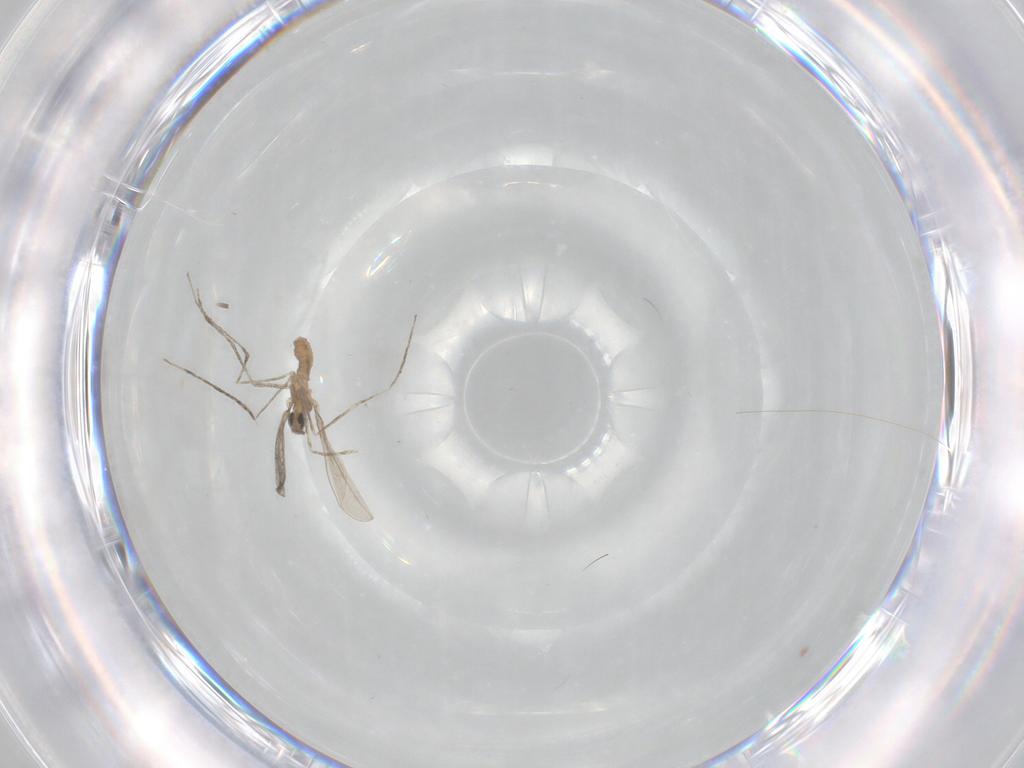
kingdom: Animalia
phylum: Arthropoda
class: Insecta
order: Diptera
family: Cecidomyiidae
